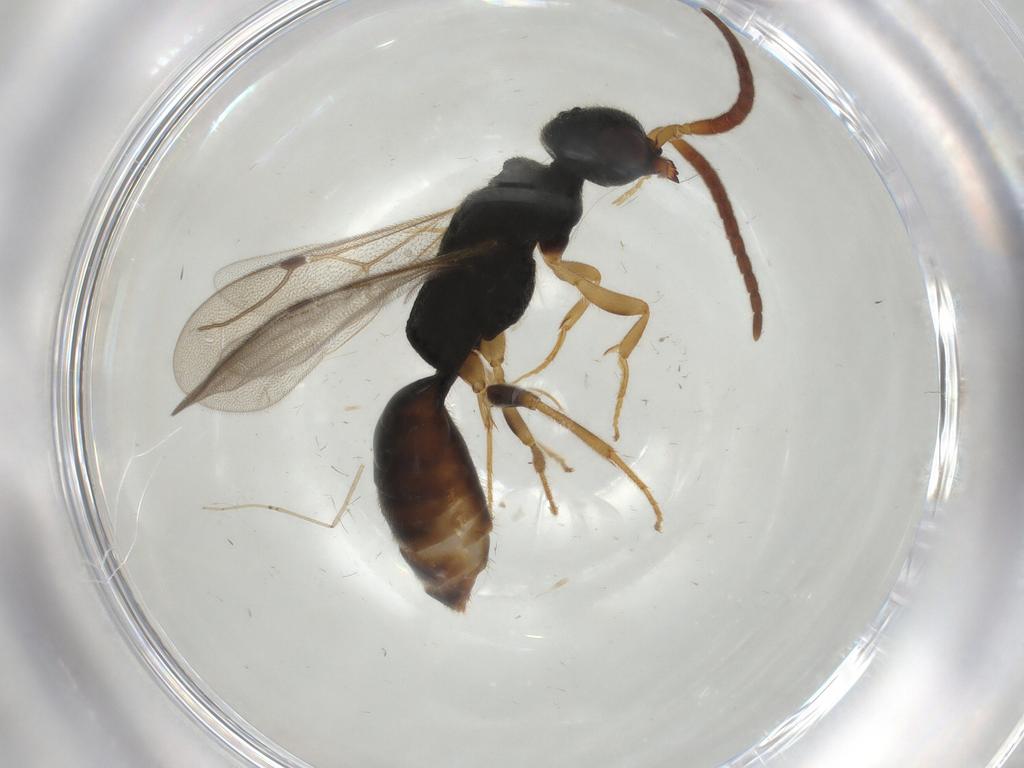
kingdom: Animalia
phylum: Arthropoda
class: Insecta
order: Hymenoptera
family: Bethylidae
